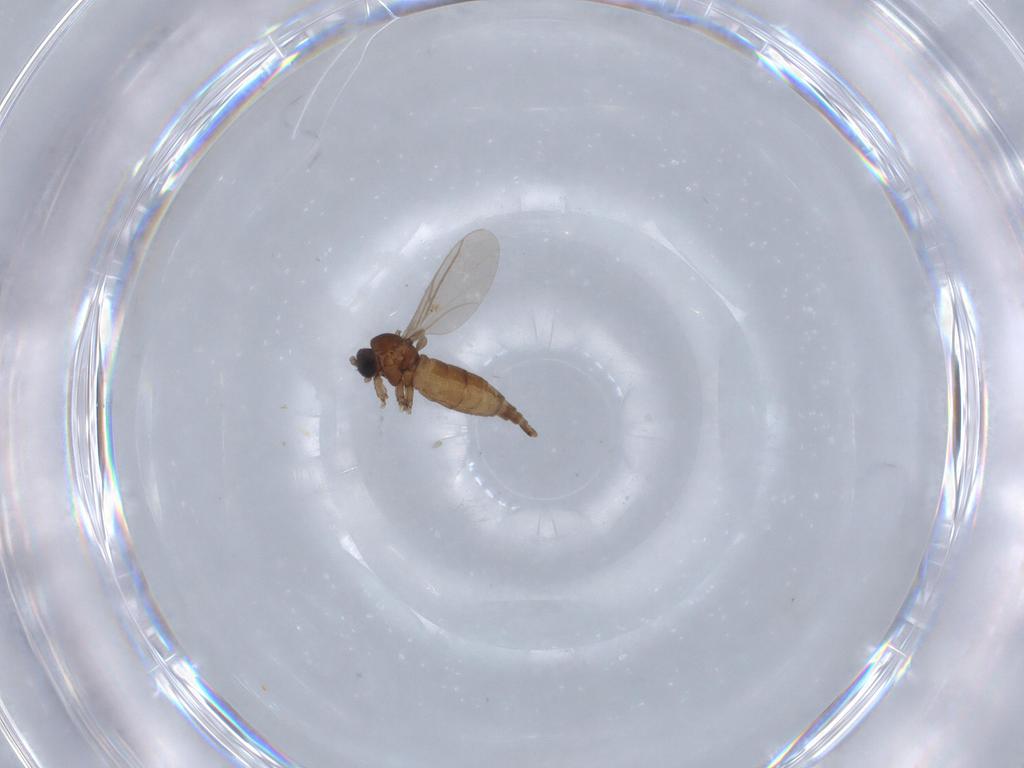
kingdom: Animalia
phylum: Arthropoda
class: Insecta
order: Diptera
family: Sciaridae
